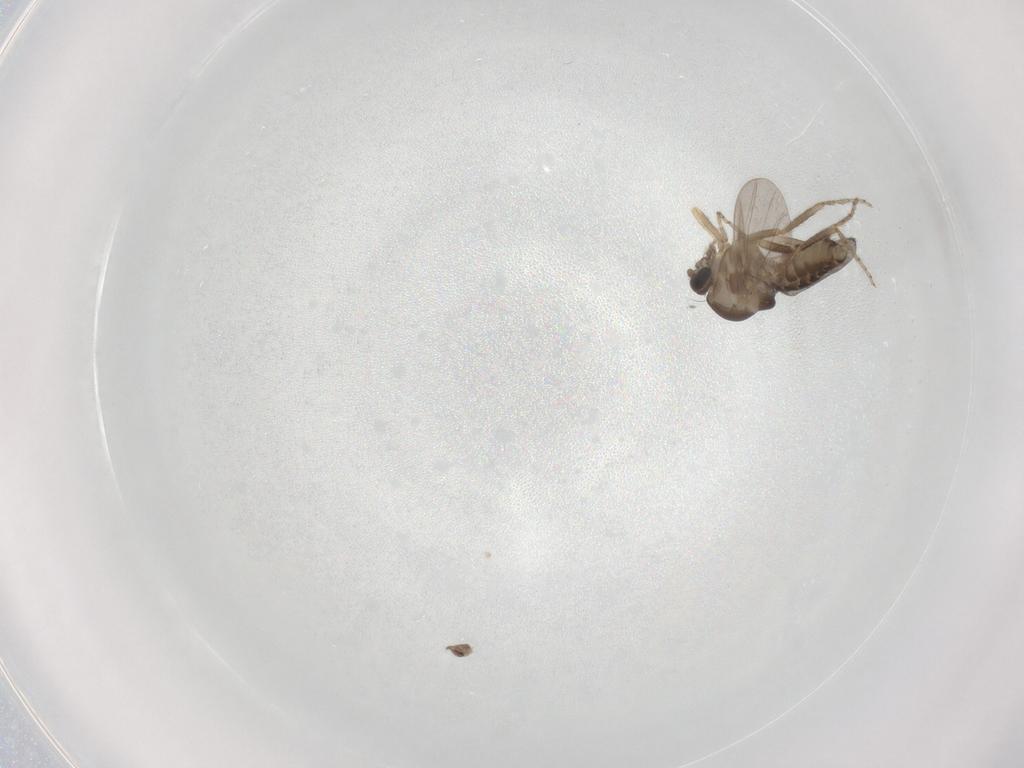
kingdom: Animalia
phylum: Arthropoda
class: Insecta
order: Diptera
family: Ceratopogonidae
